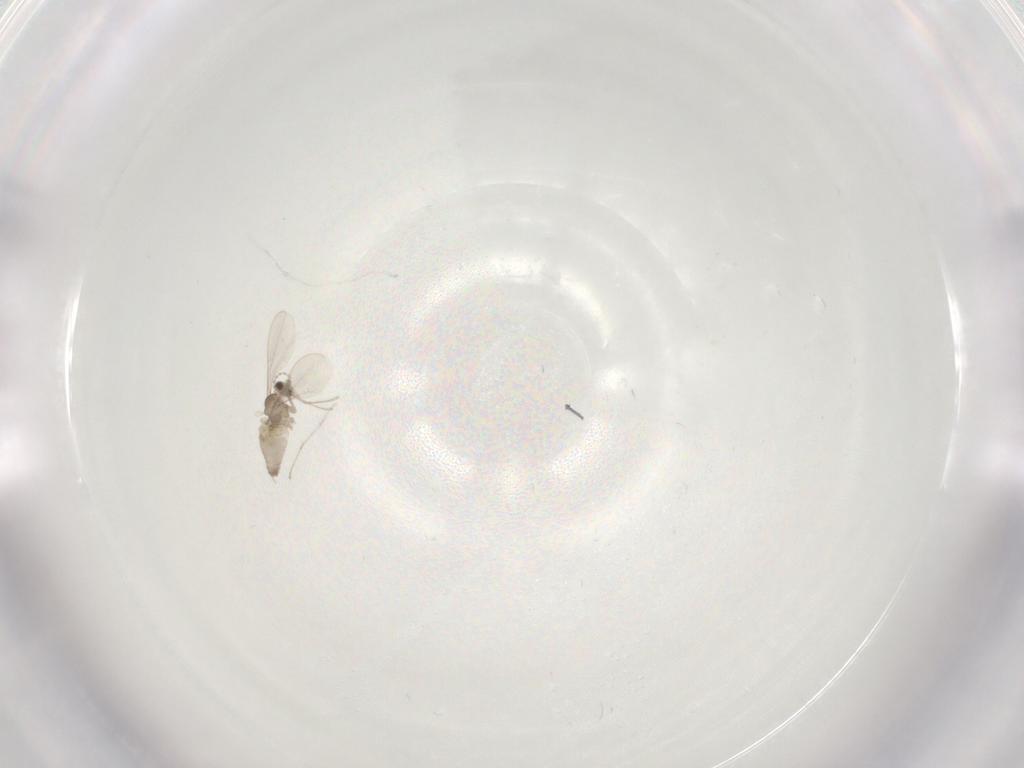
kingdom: Animalia
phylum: Arthropoda
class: Insecta
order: Diptera
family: Cecidomyiidae
